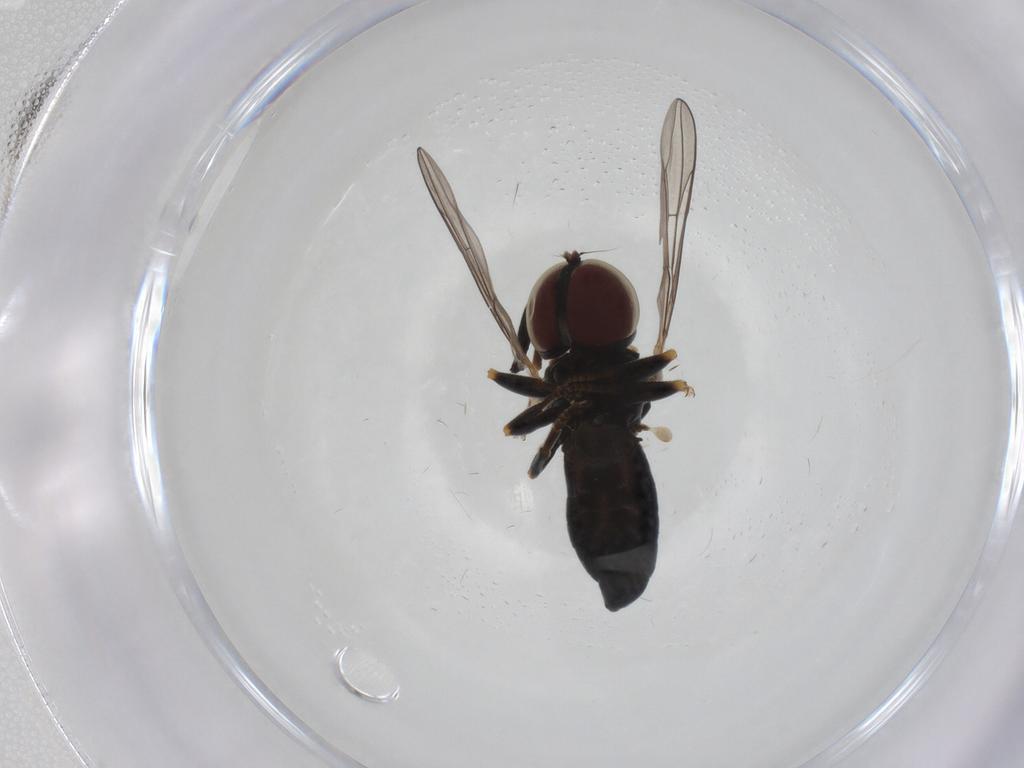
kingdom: Animalia
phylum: Arthropoda
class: Insecta
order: Diptera
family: Pipunculidae
